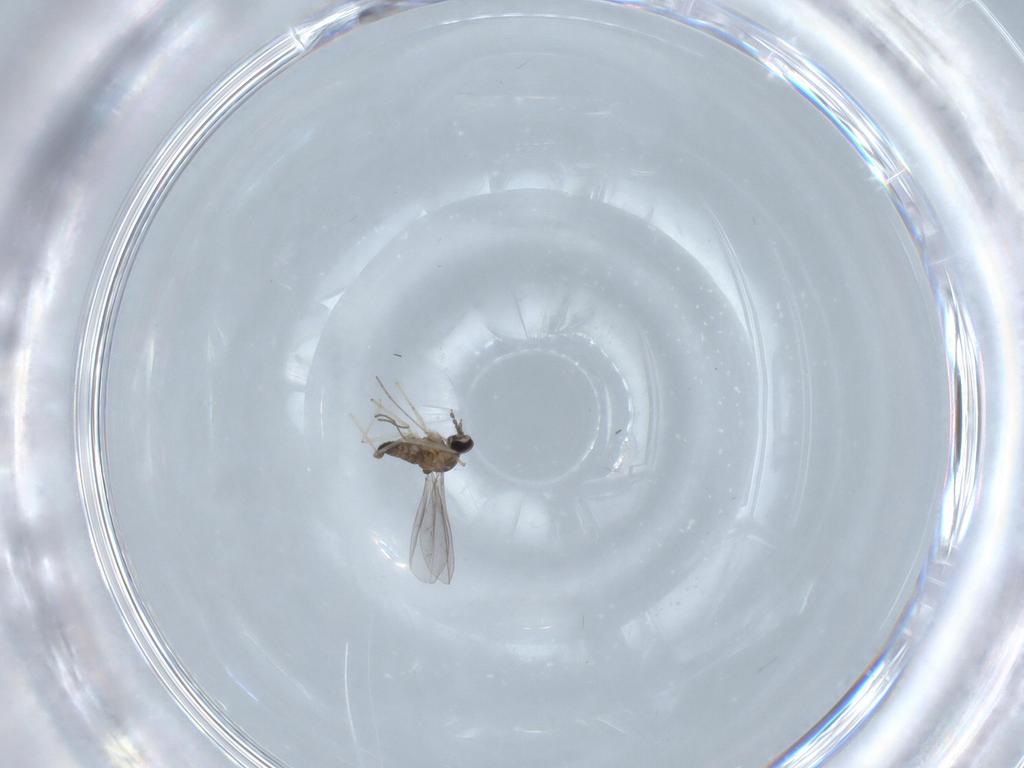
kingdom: Animalia
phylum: Arthropoda
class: Insecta
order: Diptera
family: Cecidomyiidae
